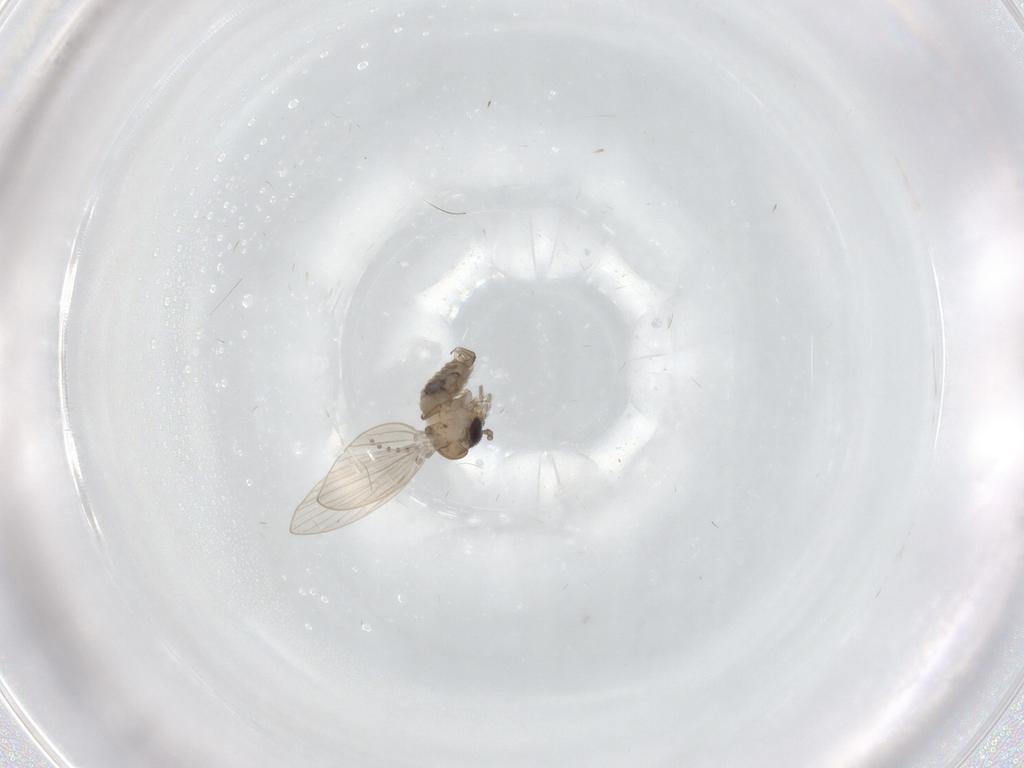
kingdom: Animalia
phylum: Arthropoda
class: Insecta
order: Diptera
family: Psychodidae
